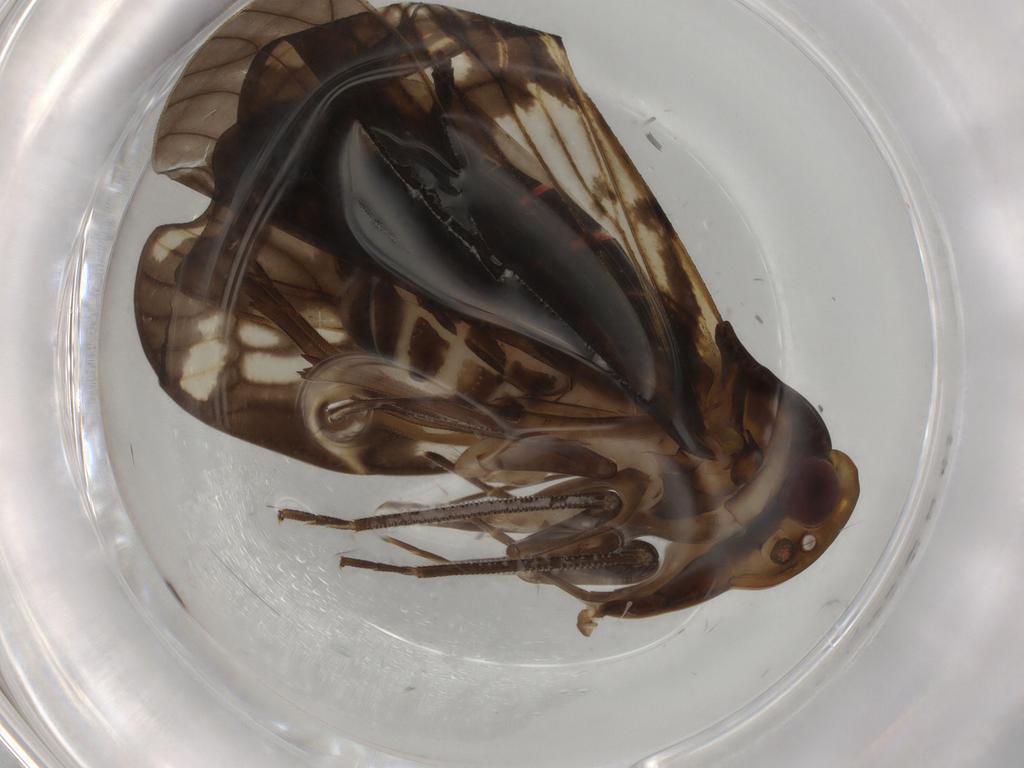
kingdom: Animalia
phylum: Arthropoda
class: Insecta
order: Hemiptera
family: Cixiidae
